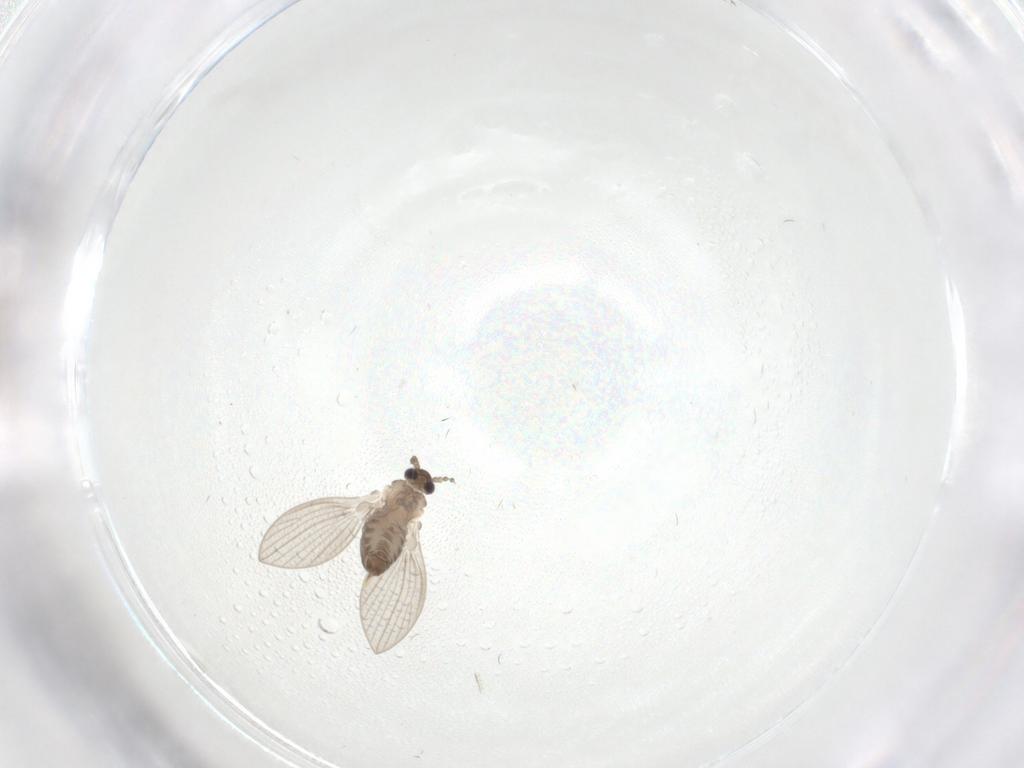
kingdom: Animalia
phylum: Arthropoda
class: Insecta
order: Diptera
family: Psychodidae
